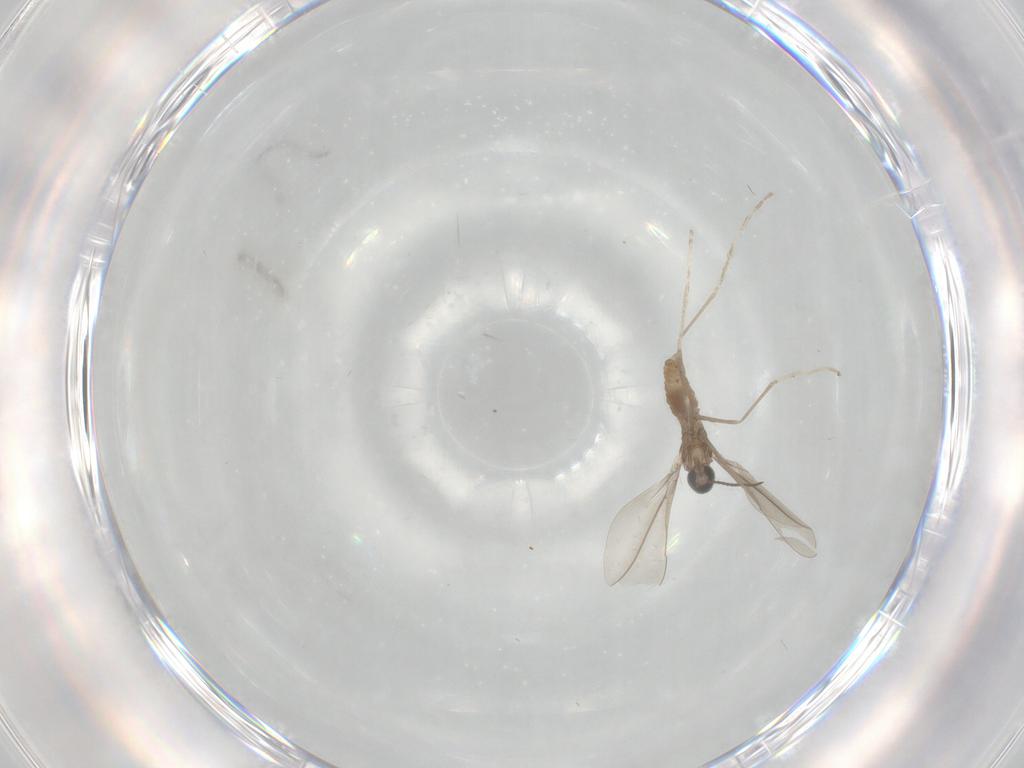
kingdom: Animalia
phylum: Arthropoda
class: Insecta
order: Diptera
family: Cecidomyiidae
